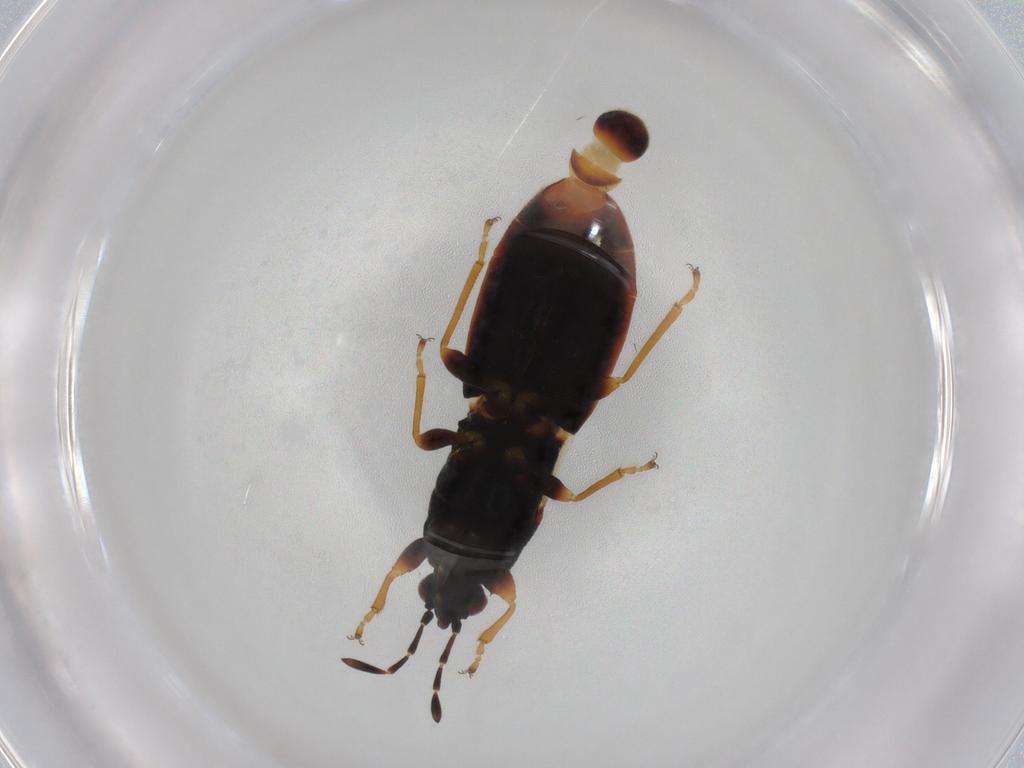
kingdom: Animalia
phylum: Arthropoda
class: Insecta
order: Hemiptera
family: Blissidae
